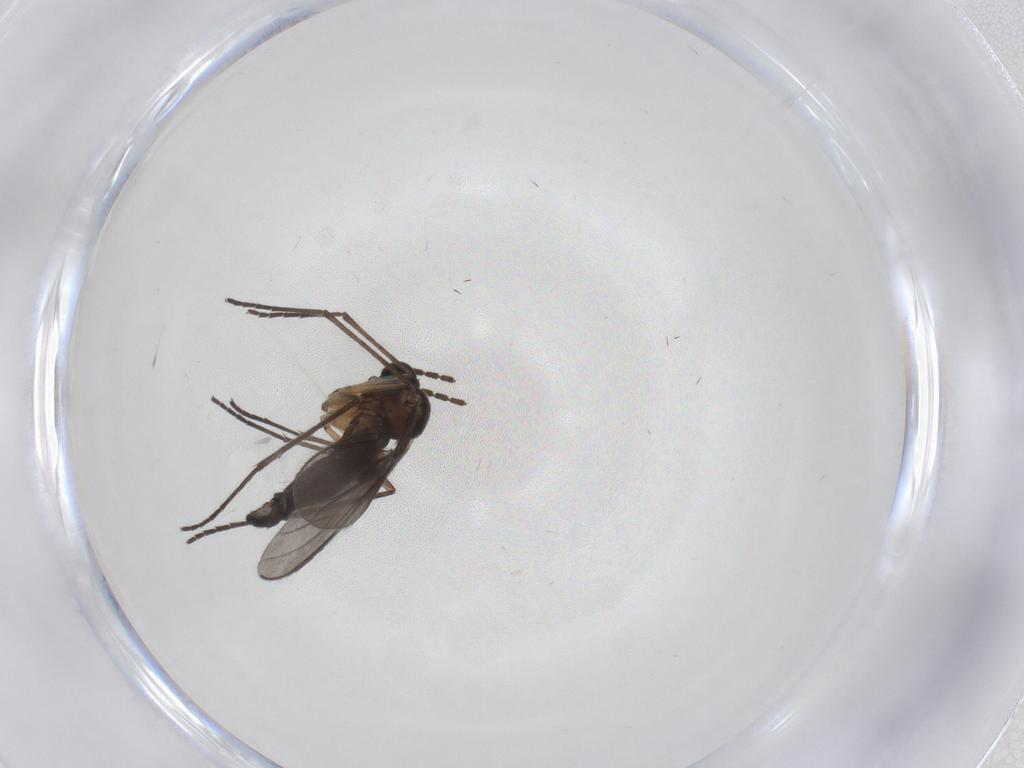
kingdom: Animalia
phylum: Arthropoda
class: Insecta
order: Diptera
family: Sciaridae
